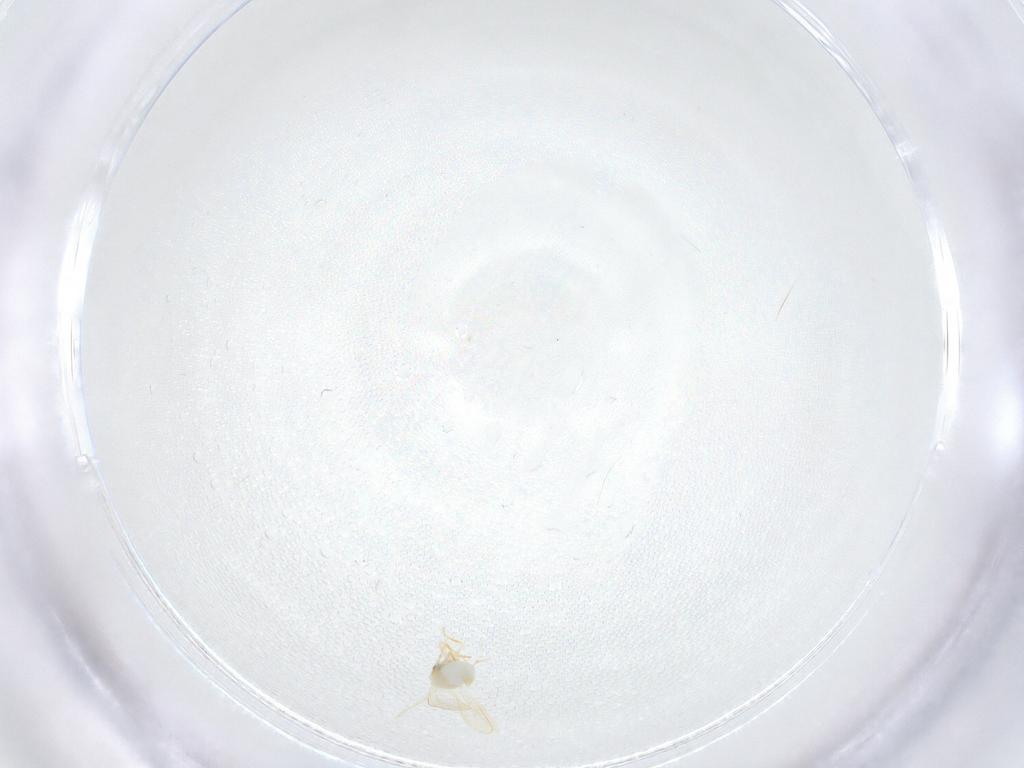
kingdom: Animalia
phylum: Arthropoda
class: Insecta
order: Hemiptera
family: Aleyrodidae
